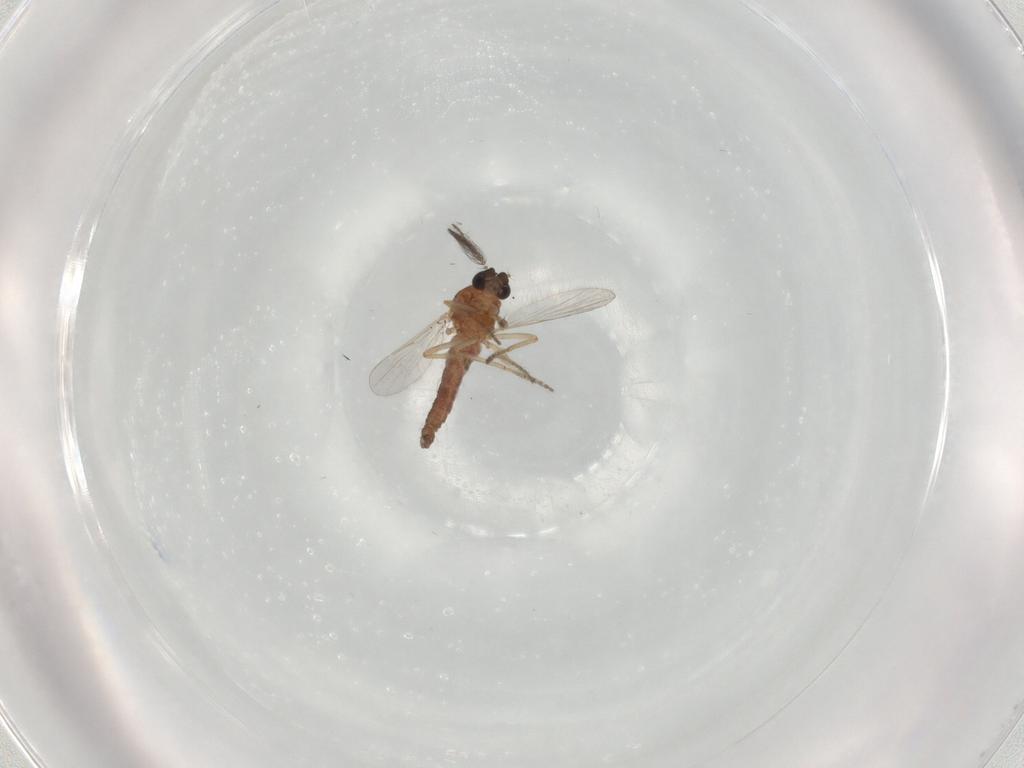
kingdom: Animalia
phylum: Arthropoda
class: Insecta
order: Diptera
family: Ceratopogonidae
